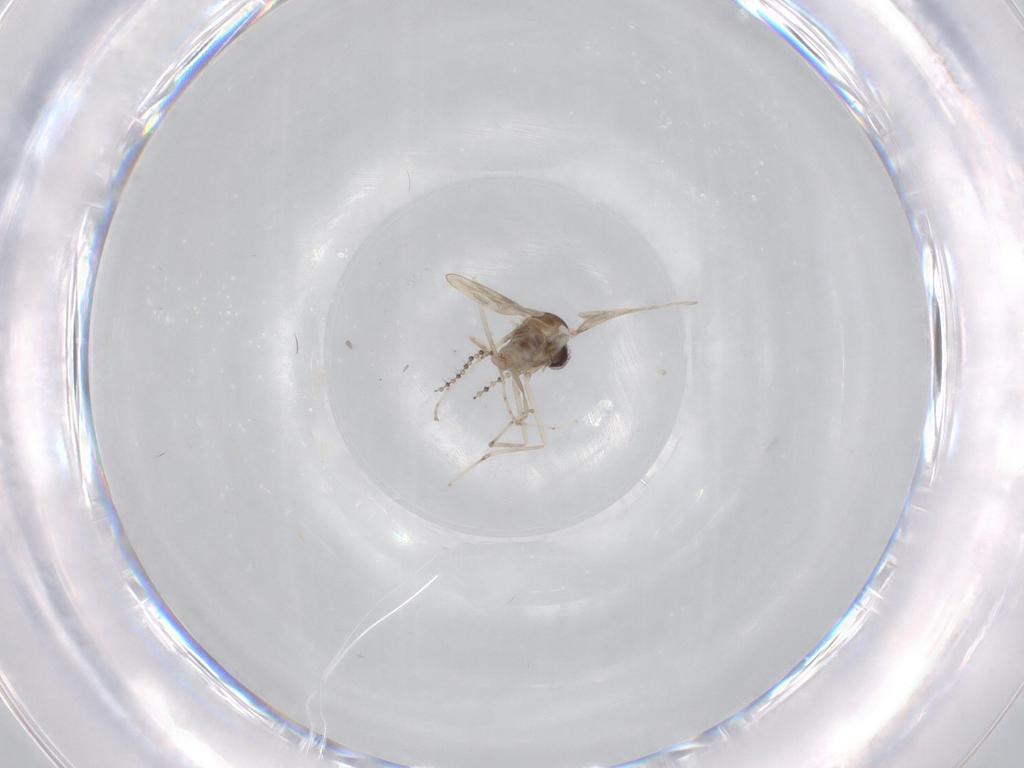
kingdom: Animalia
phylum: Arthropoda
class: Insecta
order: Diptera
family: Cecidomyiidae
